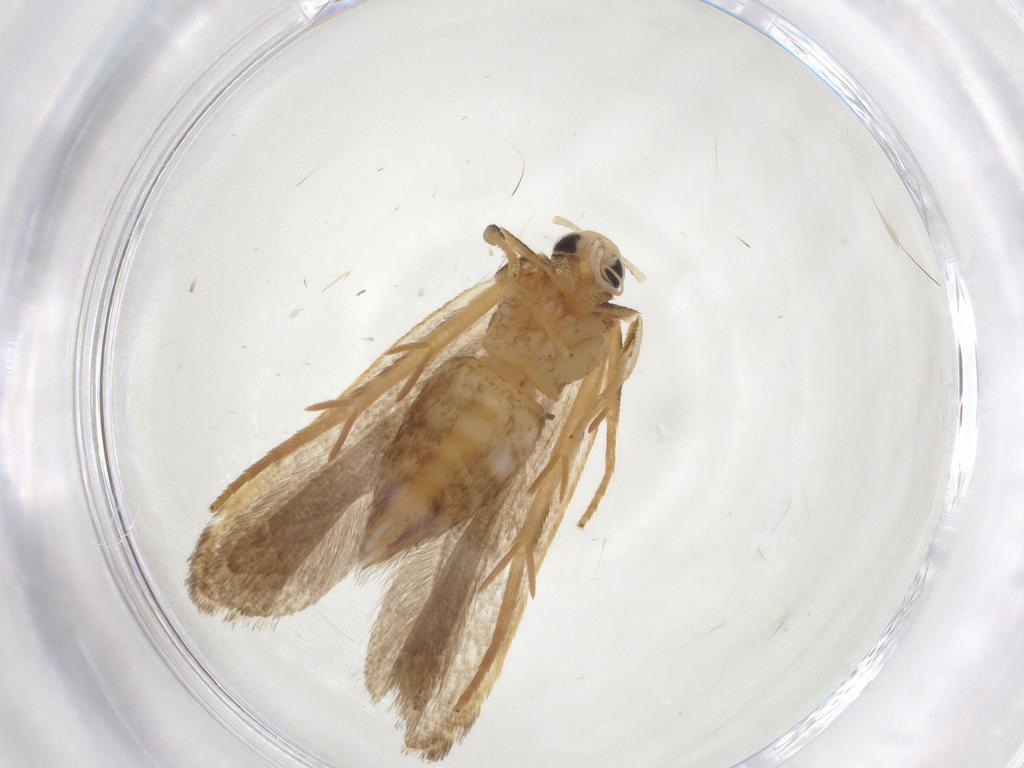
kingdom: Animalia
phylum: Arthropoda
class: Insecta
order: Lepidoptera
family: Gelechiidae
